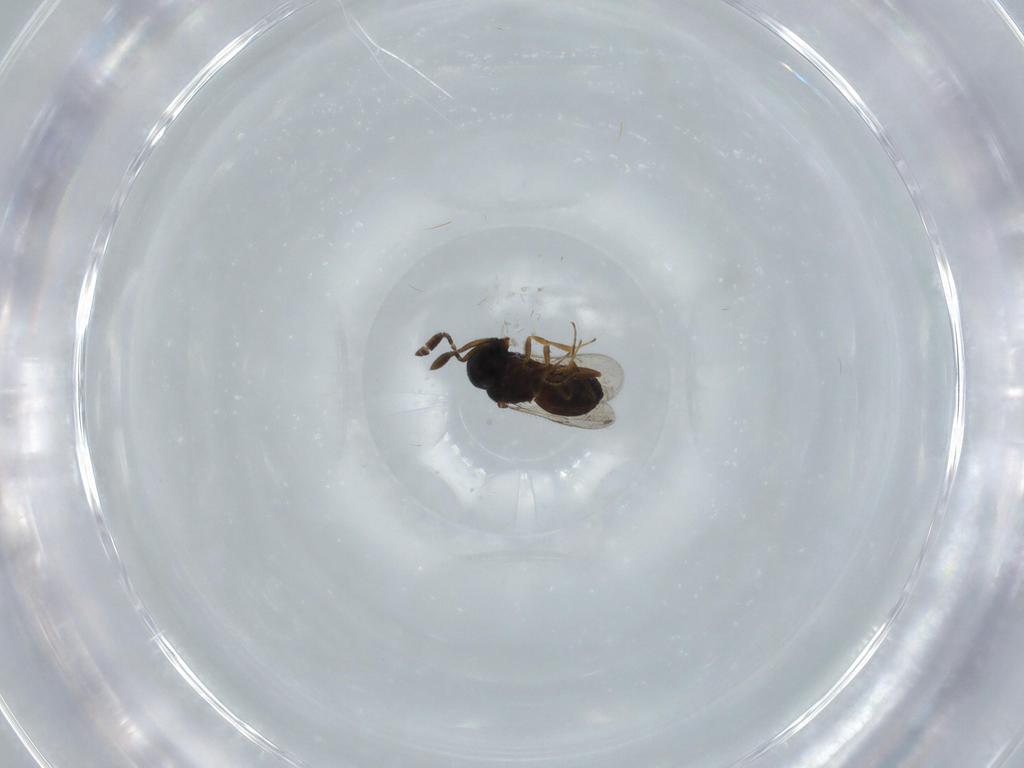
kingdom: Animalia
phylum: Arthropoda
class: Insecta
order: Hymenoptera
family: Scelionidae
